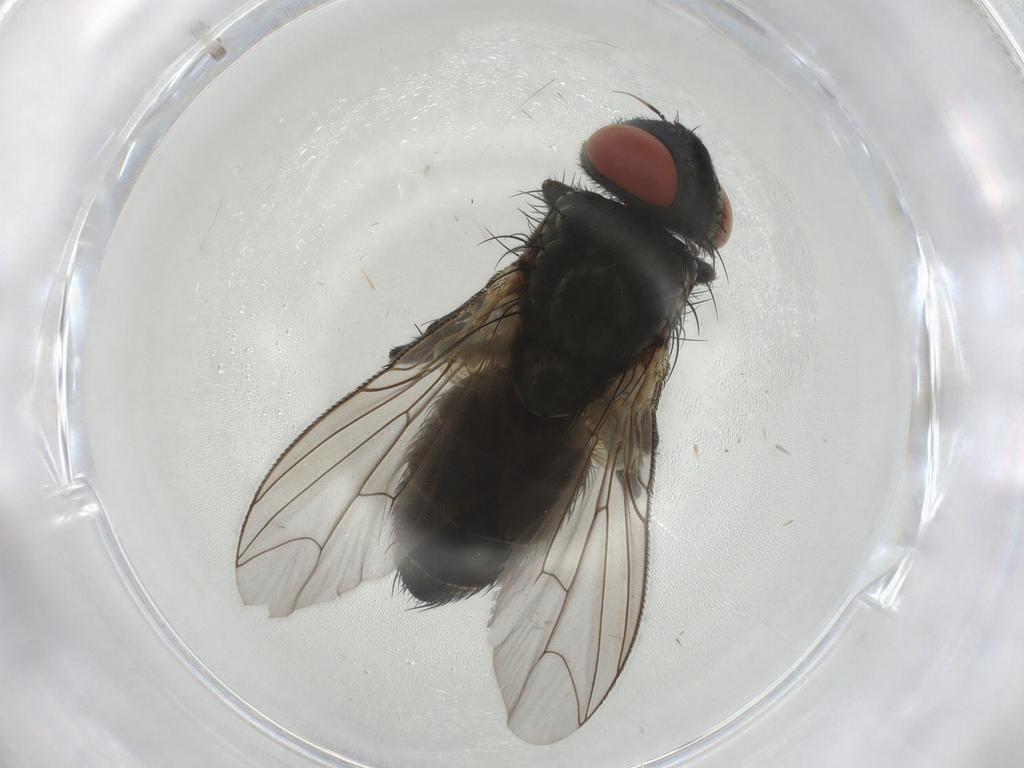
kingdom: Animalia
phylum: Arthropoda
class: Insecta
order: Diptera
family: Sarcophagidae
